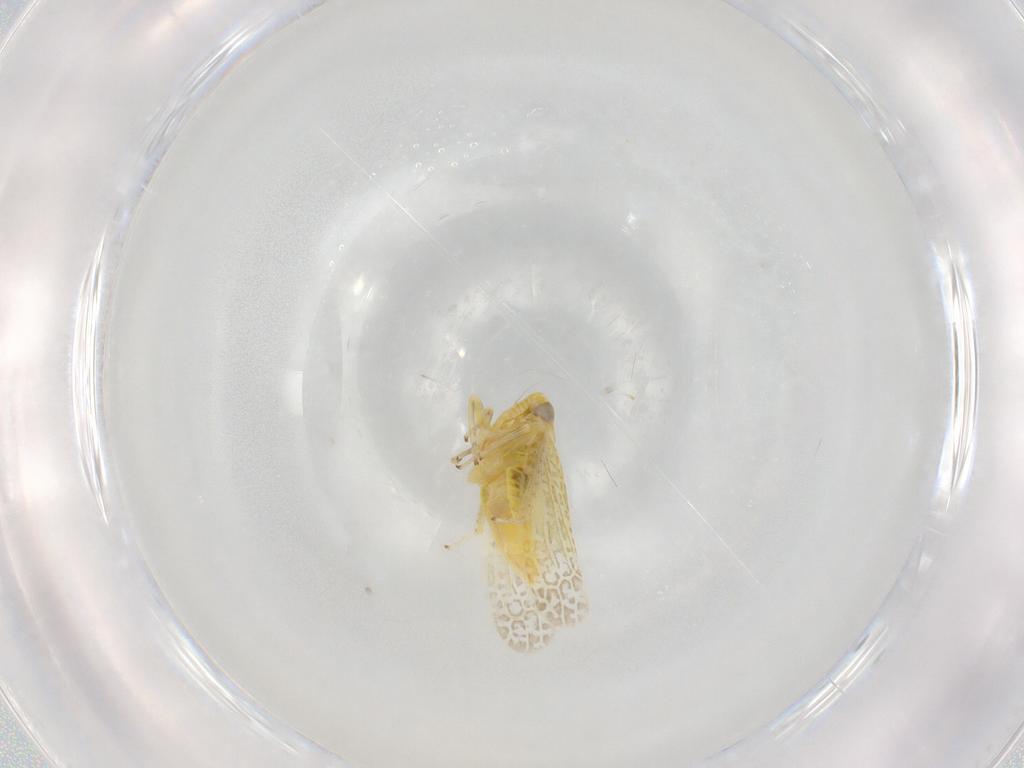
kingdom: Animalia
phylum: Arthropoda
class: Insecta
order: Hemiptera
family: Cicadellidae
